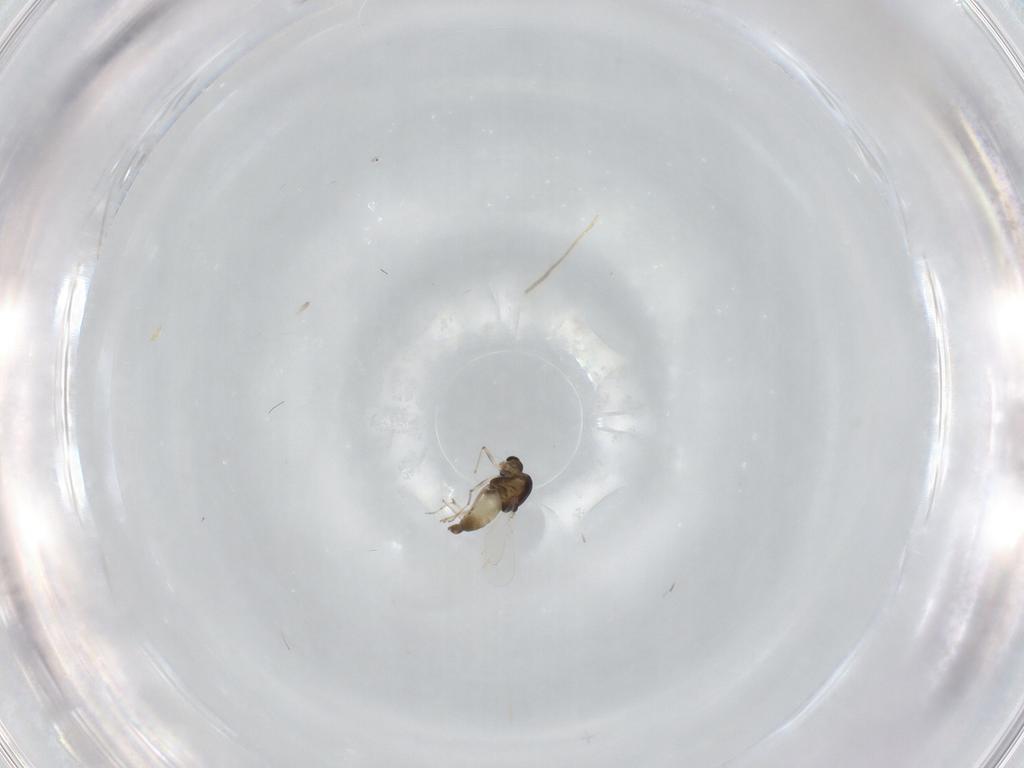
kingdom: Animalia
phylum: Arthropoda
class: Insecta
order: Diptera
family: Chironomidae
